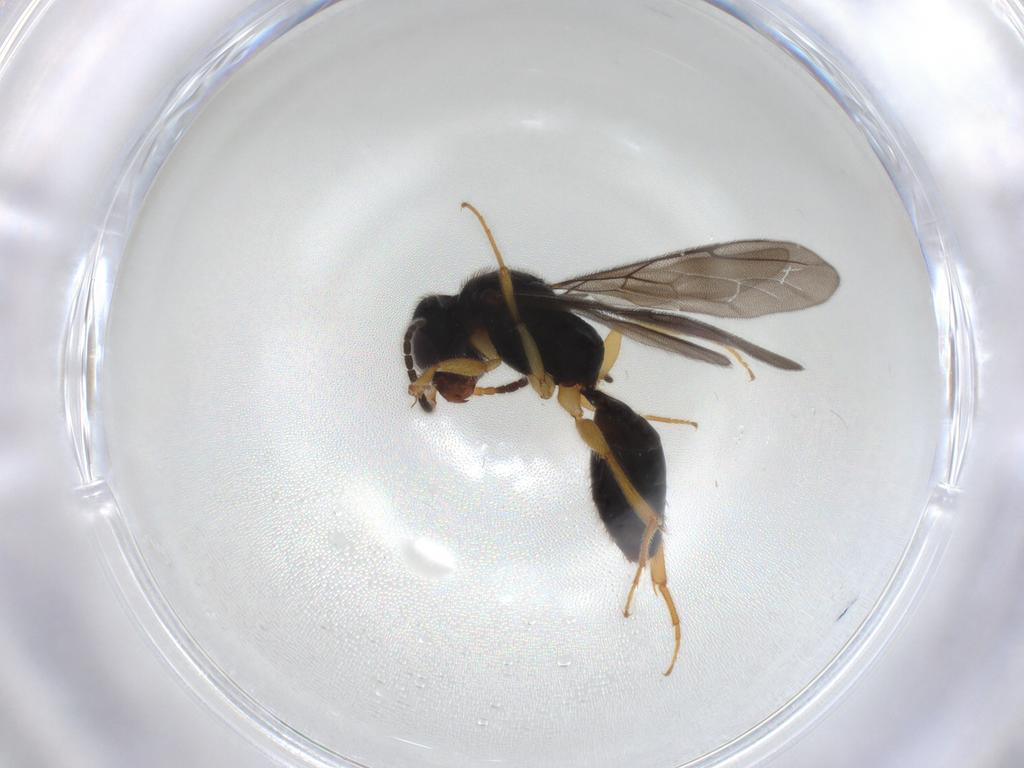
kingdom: Animalia
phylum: Arthropoda
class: Insecta
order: Hymenoptera
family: Bethylidae
